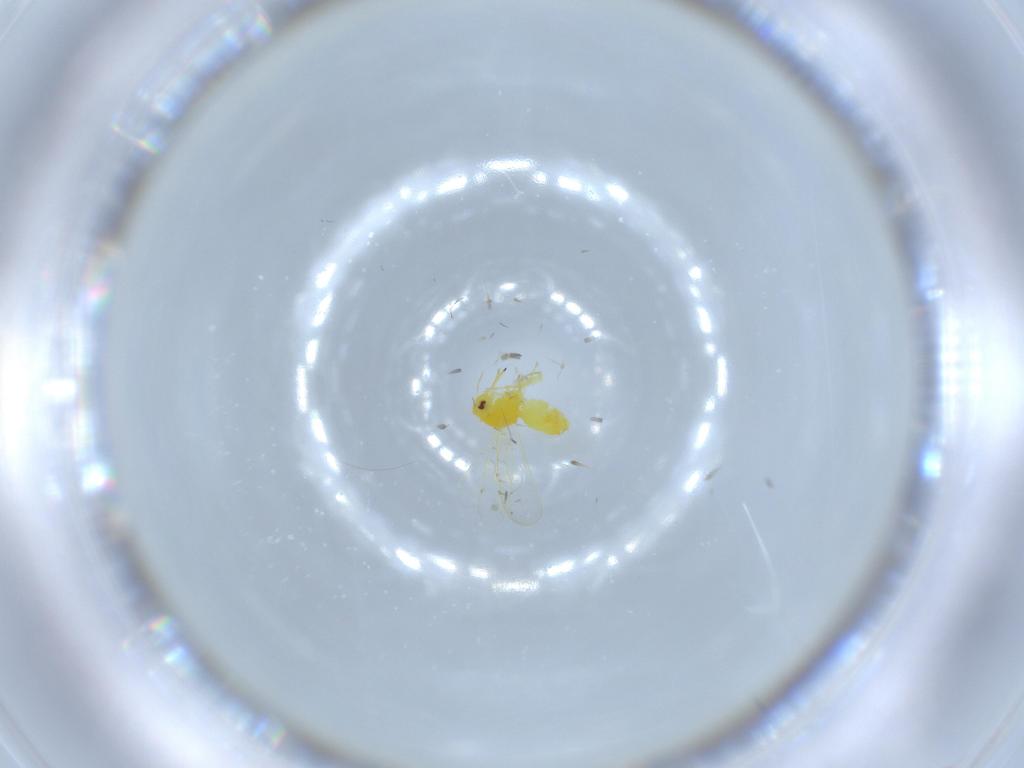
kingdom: Animalia
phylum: Arthropoda
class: Insecta
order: Hemiptera
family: Aleyrodidae
